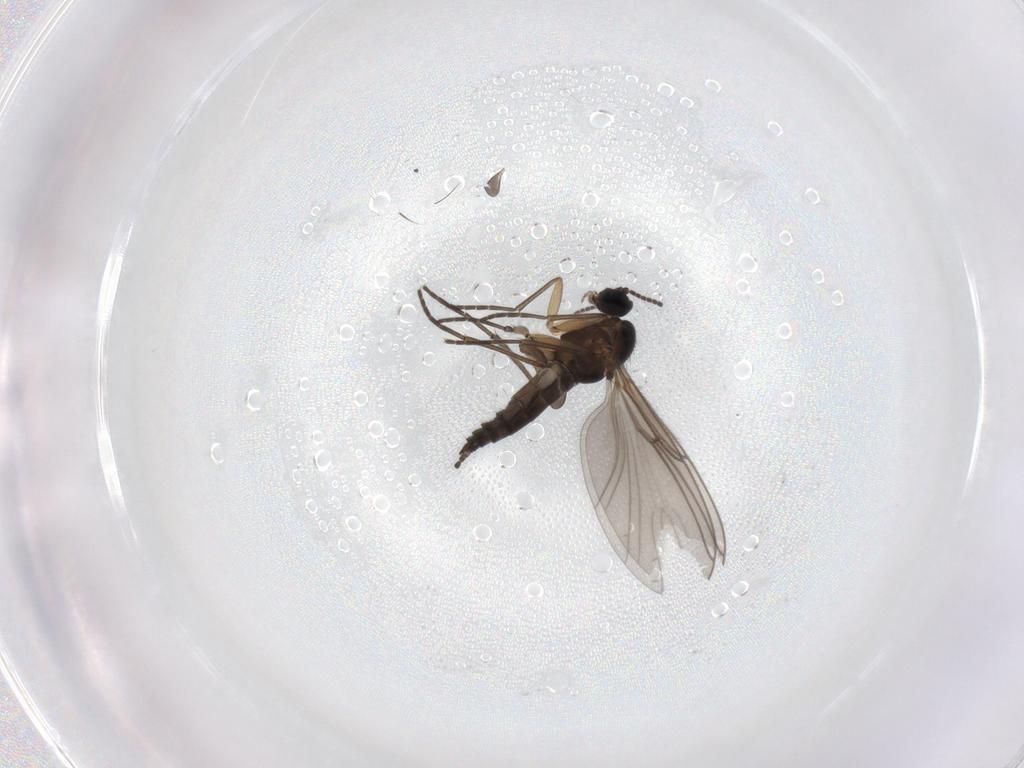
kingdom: Animalia
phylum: Arthropoda
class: Insecta
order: Diptera
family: Sciaridae
